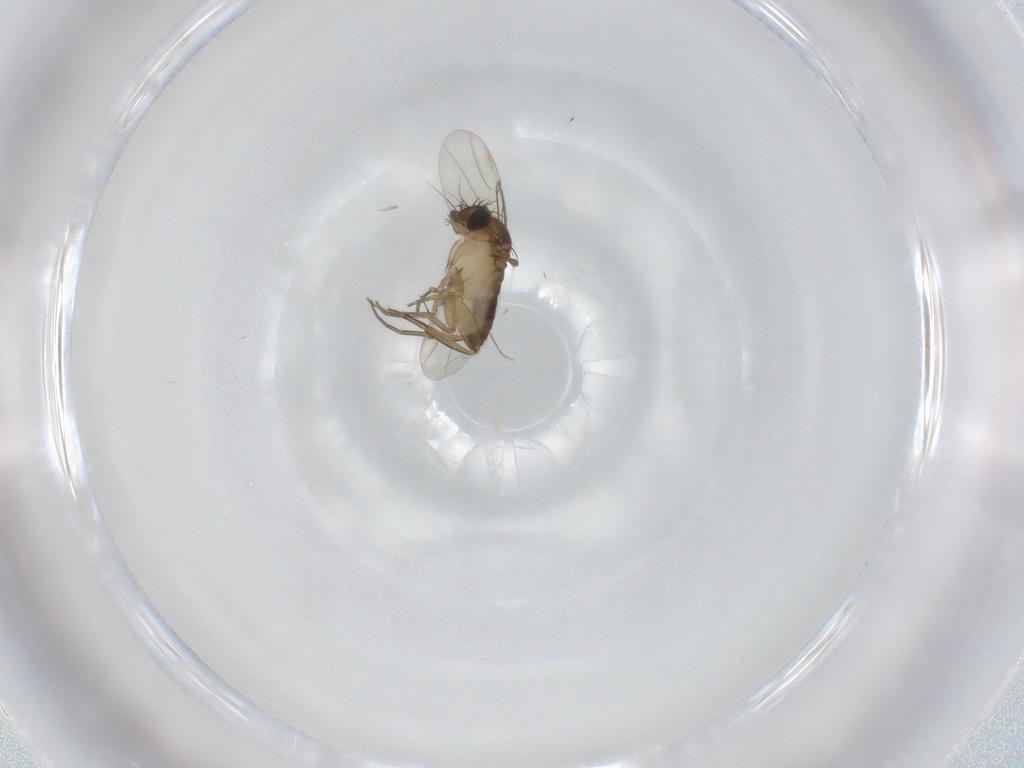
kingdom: Animalia
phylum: Arthropoda
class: Insecta
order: Diptera
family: Chironomidae
